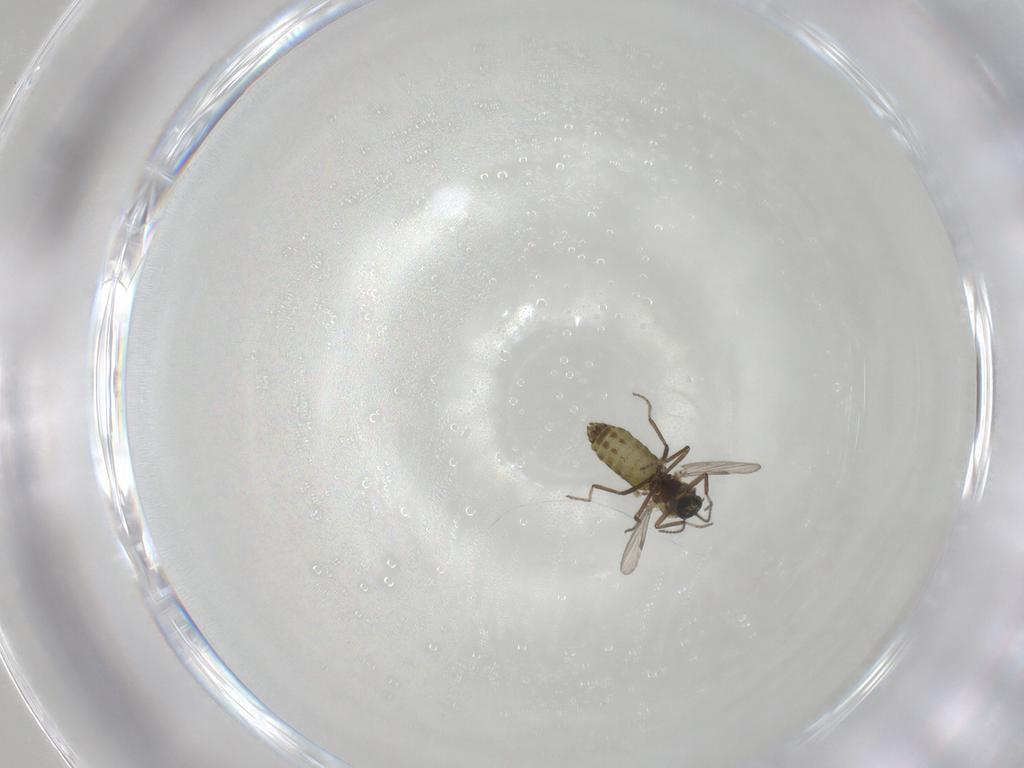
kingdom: Animalia
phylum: Arthropoda
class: Insecta
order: Diptera
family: Ceratopogonidae
